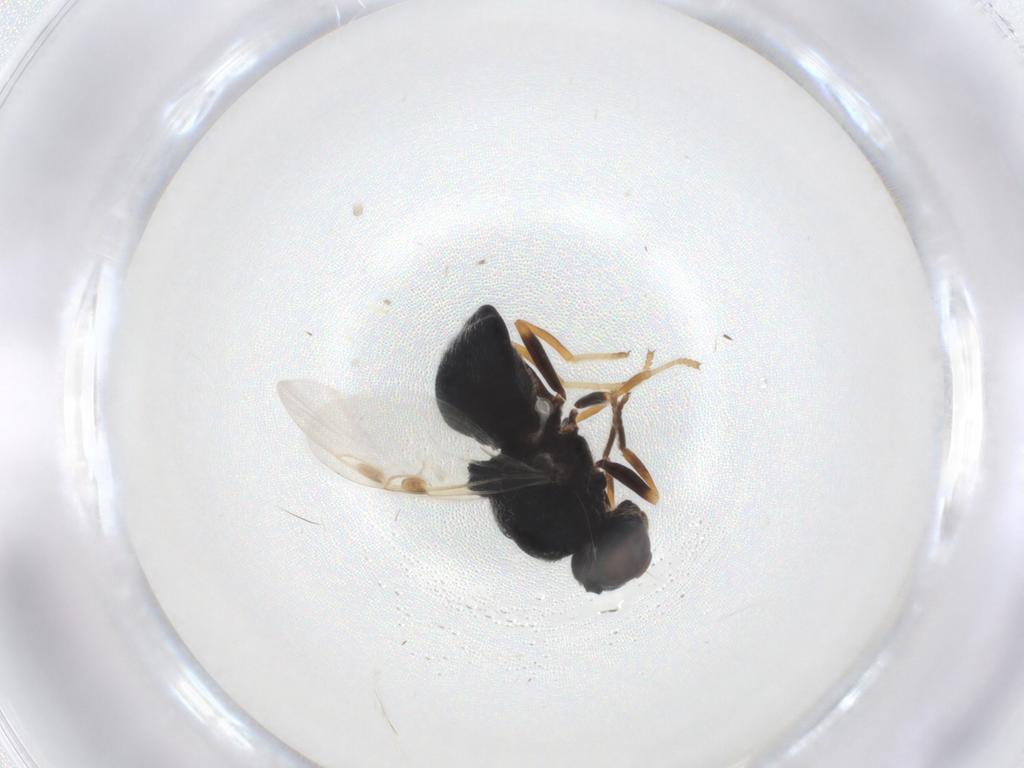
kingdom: Animalia
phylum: Arthropoda
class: Insecta
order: Diptera
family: Stratiomyidae
